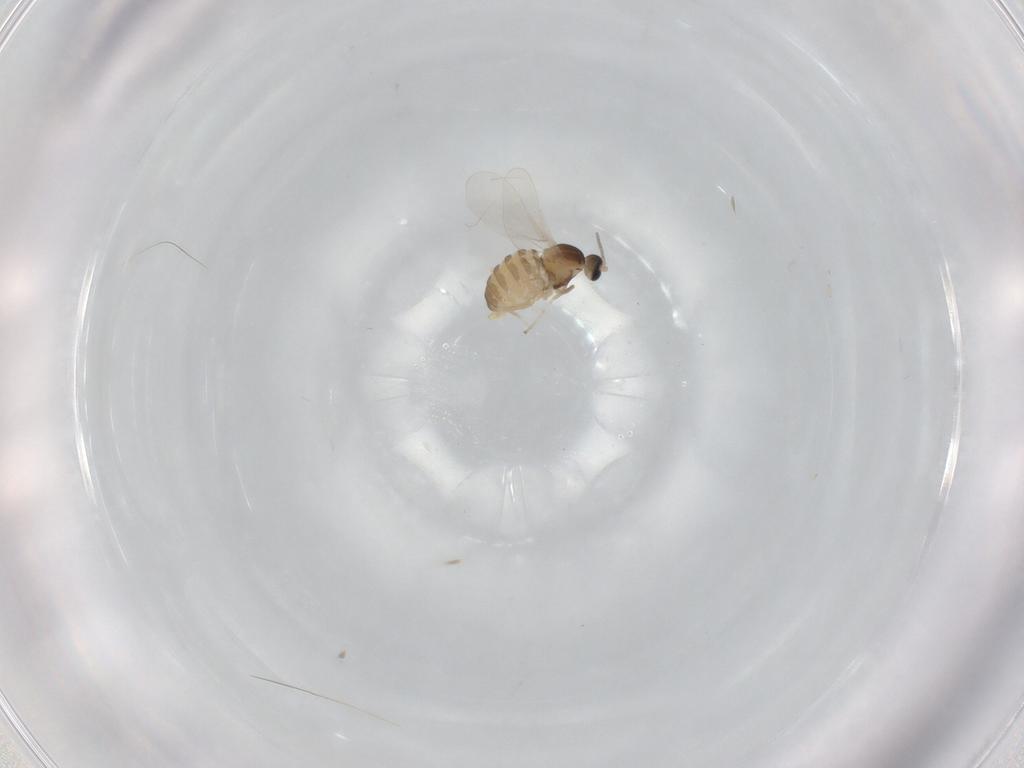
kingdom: Animalia
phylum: Arthropoda
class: Insecta
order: Diptera
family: Cecidomyiidae
